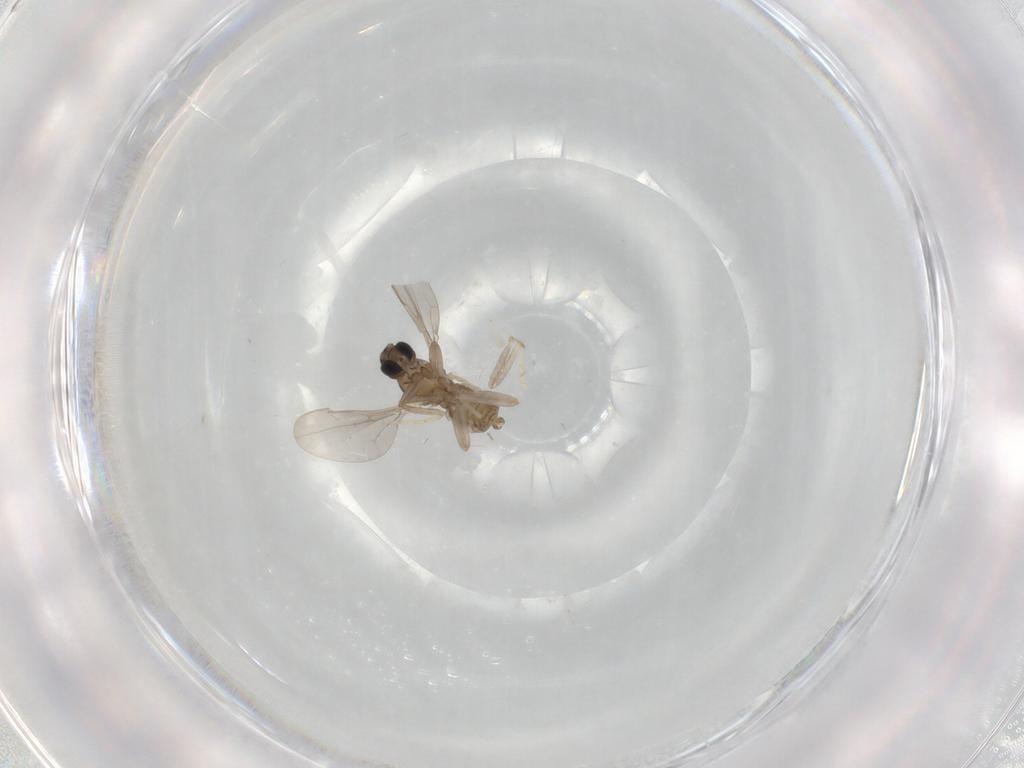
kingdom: Animalia
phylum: Arthropoda
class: Insecta
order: Diptera
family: Cecidomyiidae
